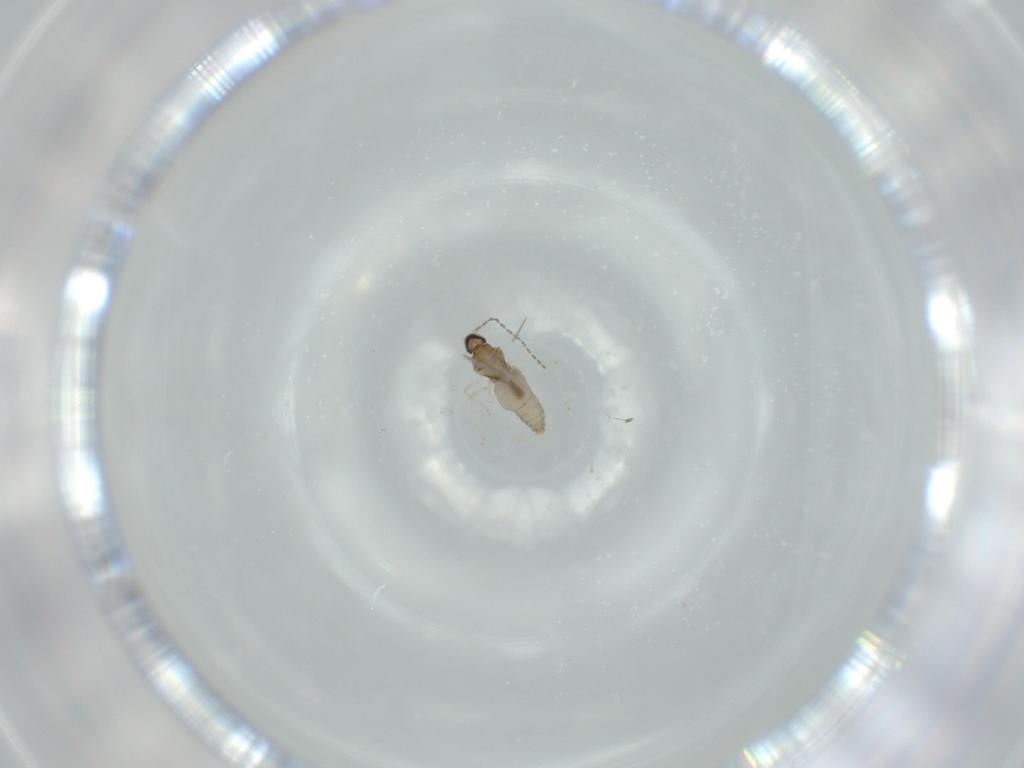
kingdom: Animalia
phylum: Arthropoda
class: Insecta
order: Diptera
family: Cecidomyiidae
